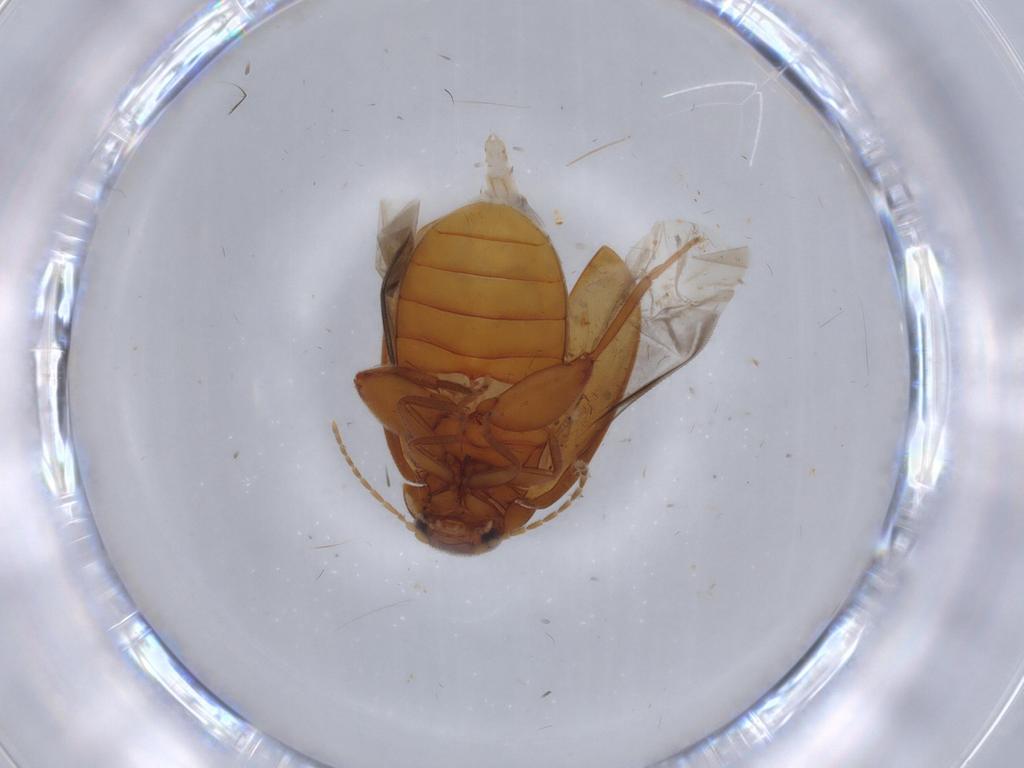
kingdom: Animalia
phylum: Arthropoda
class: Insecta
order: Coleoptera
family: Scirtidae
